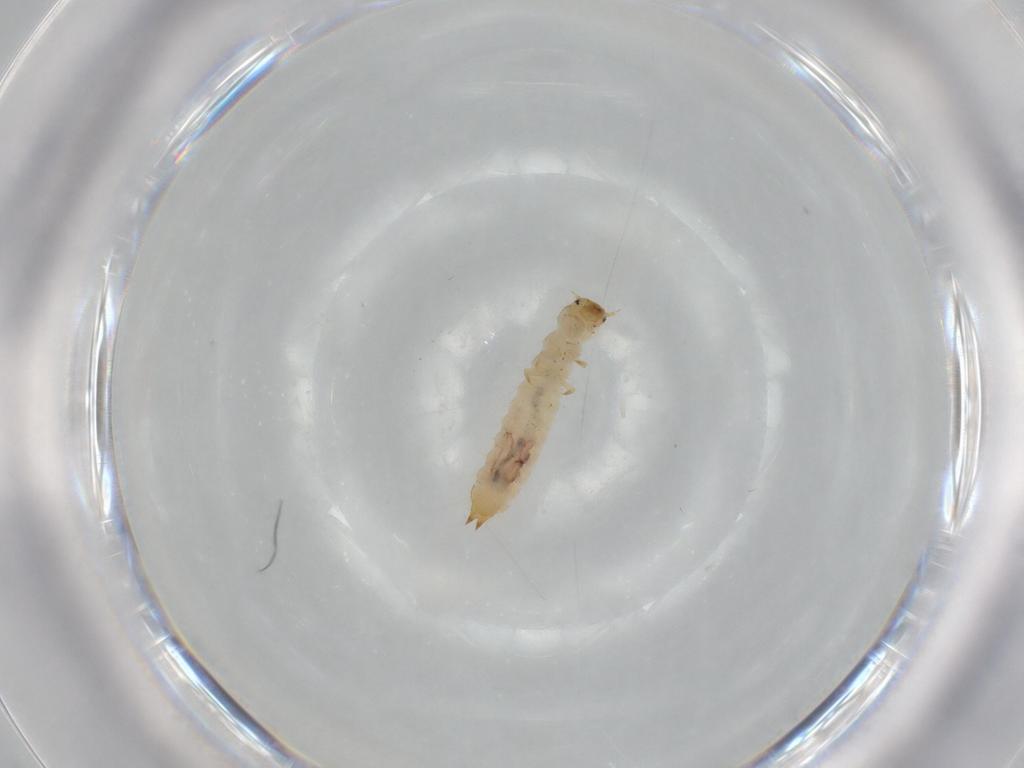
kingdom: Animalia
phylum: Arthropoda
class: Insecta
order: Coleoptera
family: Mycetophagidae
